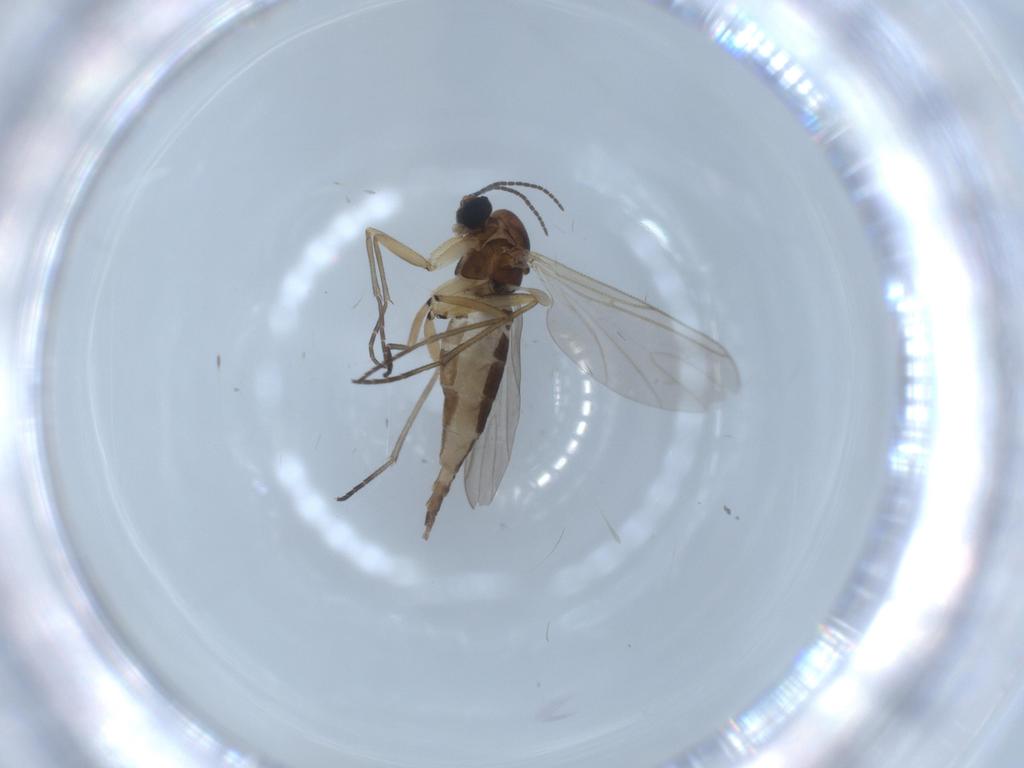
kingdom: Animalia
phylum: Arthropoda
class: Insecta
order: Diptera
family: Sciaridae
